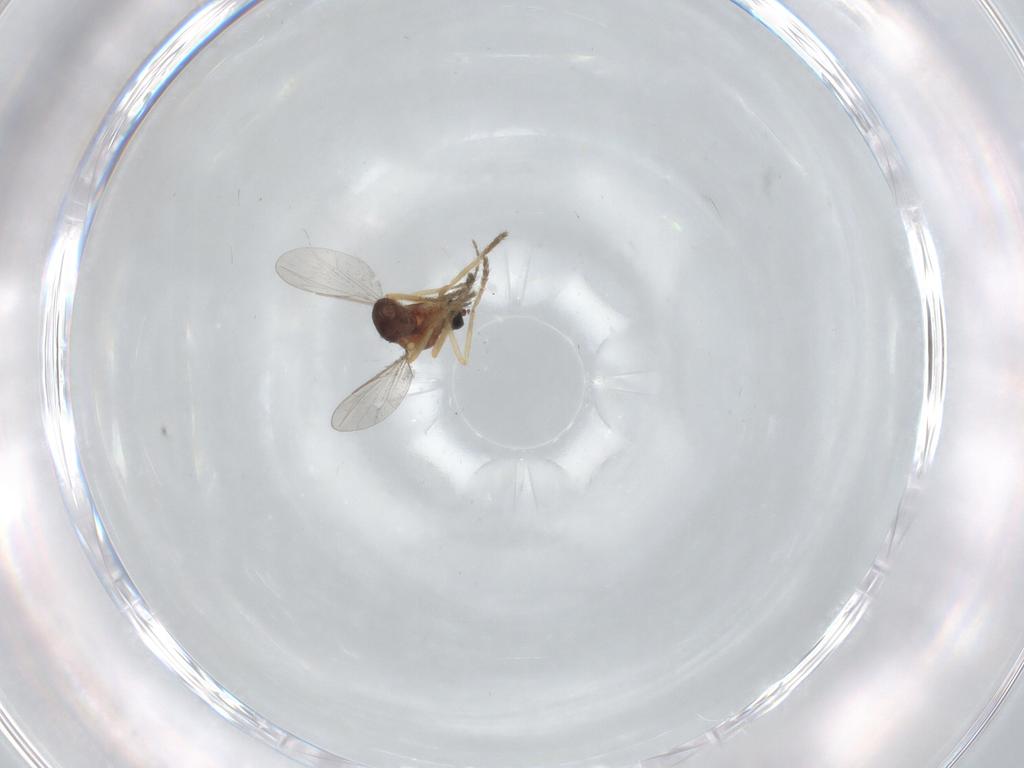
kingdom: Animalia
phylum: Arthropoda
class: Insecta
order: Diptera
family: Ceratopogonidae
